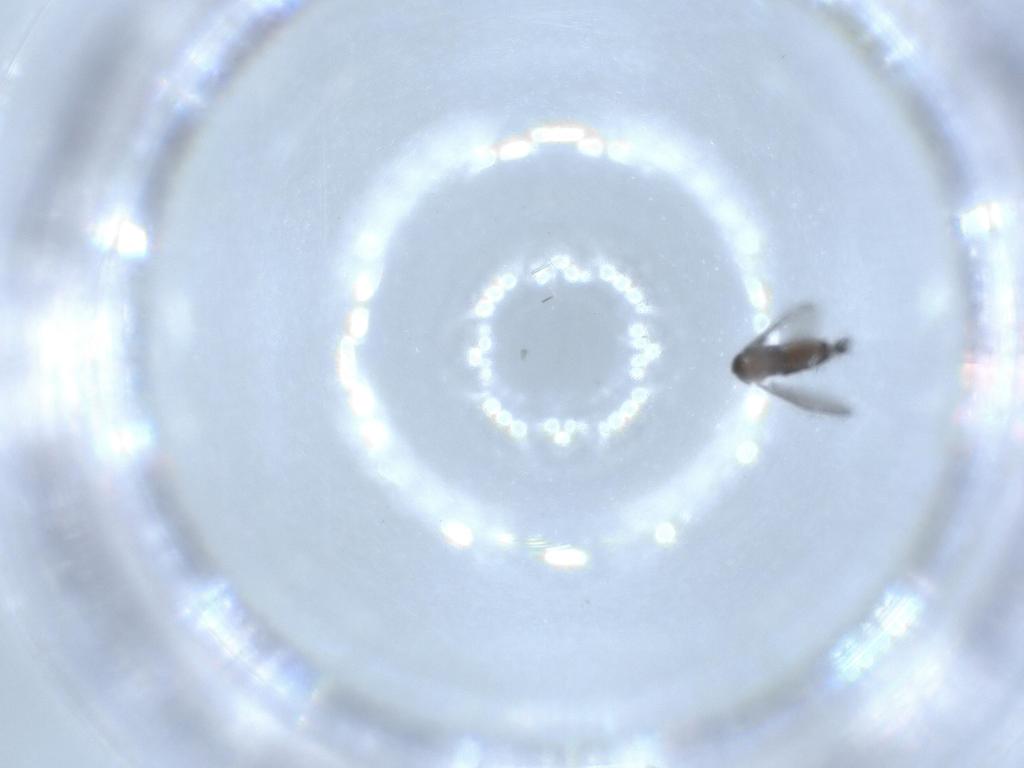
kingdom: Animalia
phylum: Arthropoda
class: Insecta
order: Diptera
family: Sciaridae
